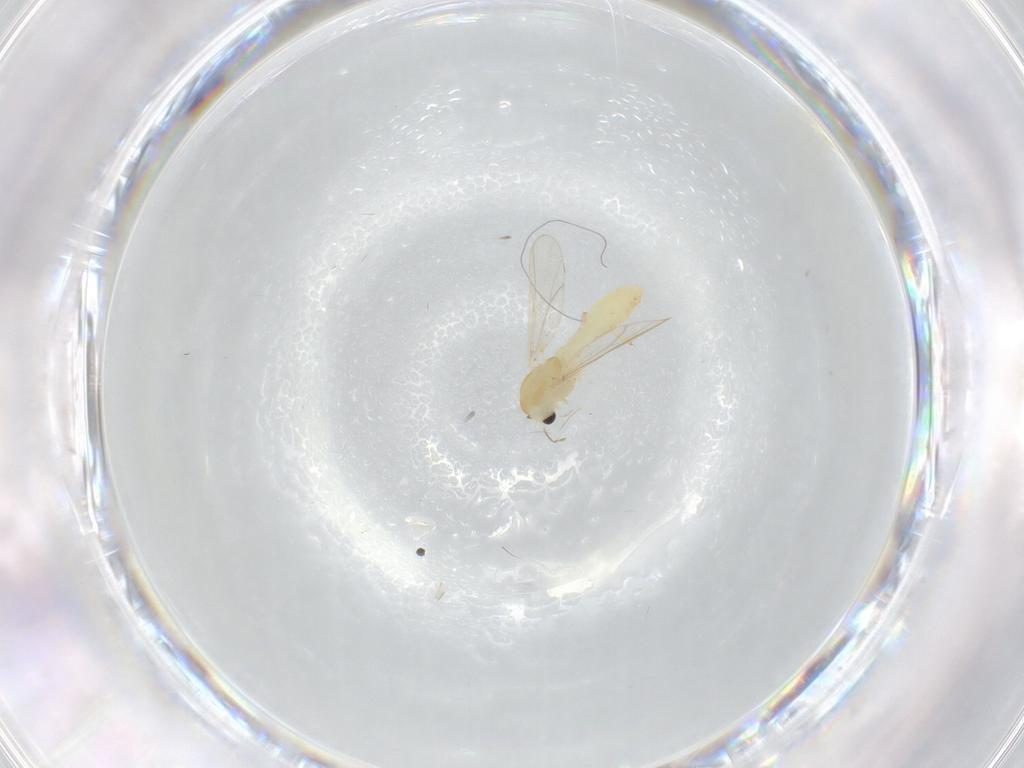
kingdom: Animalia
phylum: Arthropoda
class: Insecta
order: Diptera
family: Chironomidae
